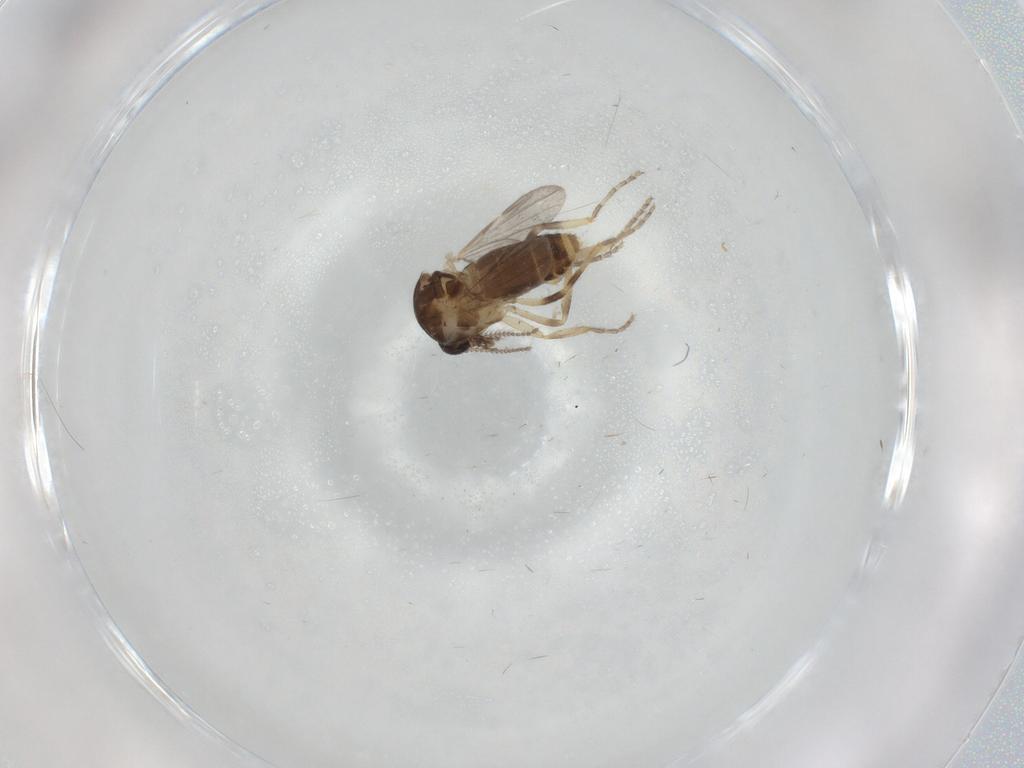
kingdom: Animalia
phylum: Arthropoda
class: Insecta
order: Diptera
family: Ceratopogonidae
